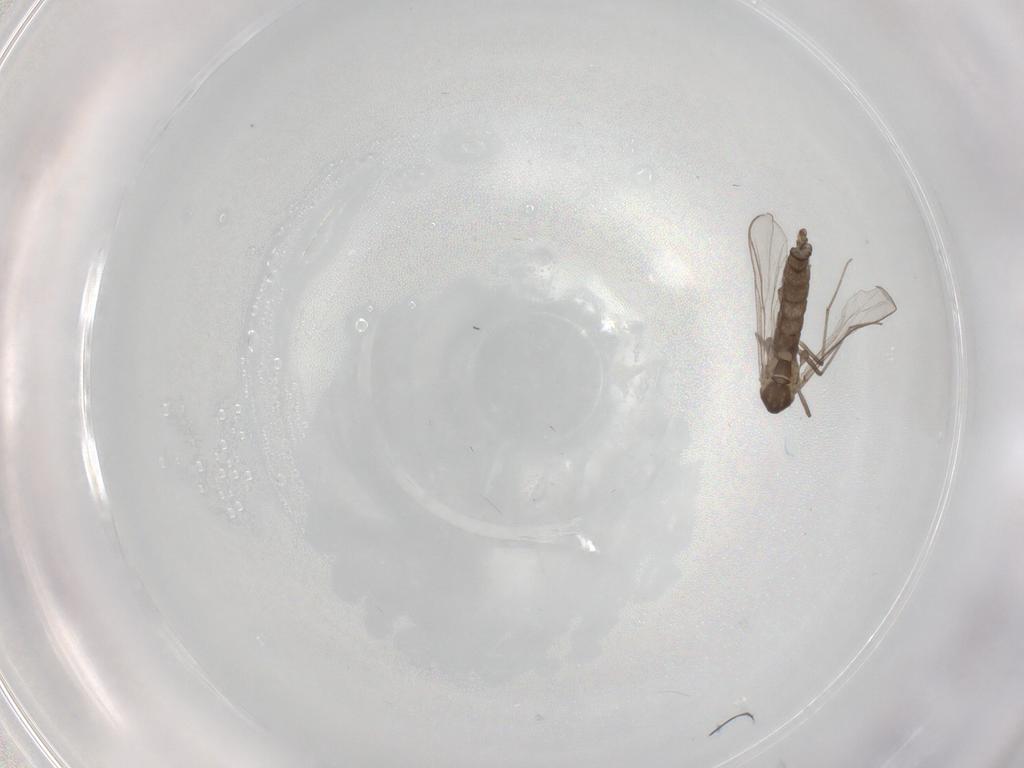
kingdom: Animalia
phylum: Arthropoda
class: Insecta
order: Diptera
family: Chironomidae
